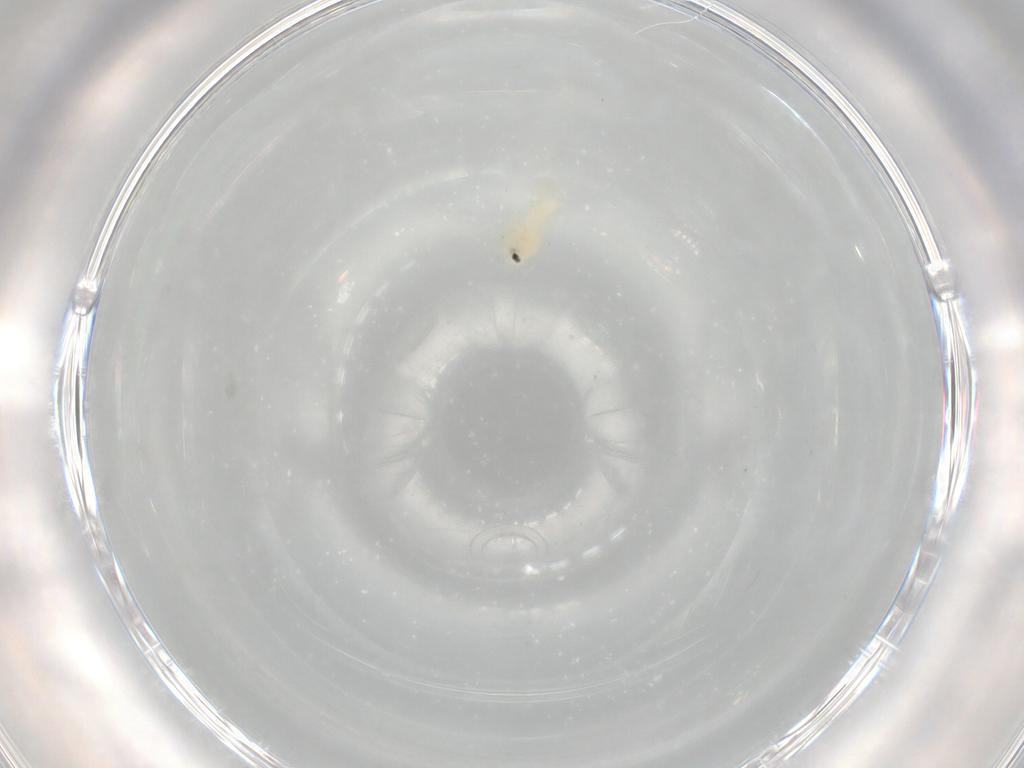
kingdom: Animalia
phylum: Arthropoda
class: Insecta
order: Hemiptera
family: Aleyrodidae
